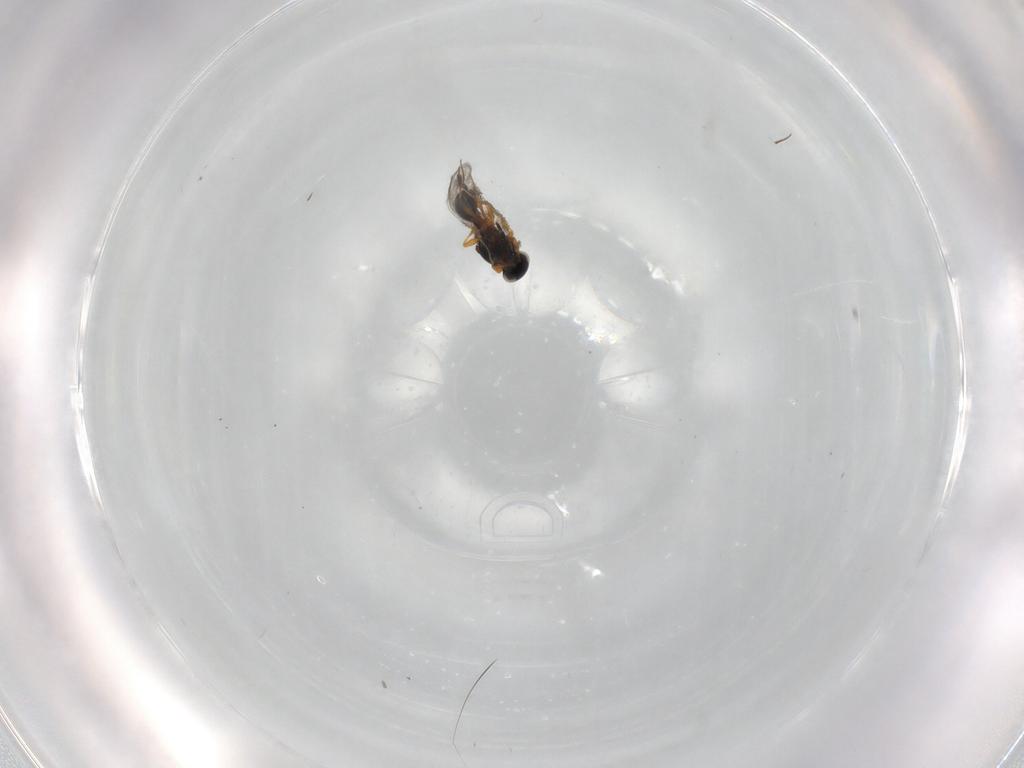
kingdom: Animalia
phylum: Arthropoda
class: Insecta
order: Hymenoptera
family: Platygastridae
